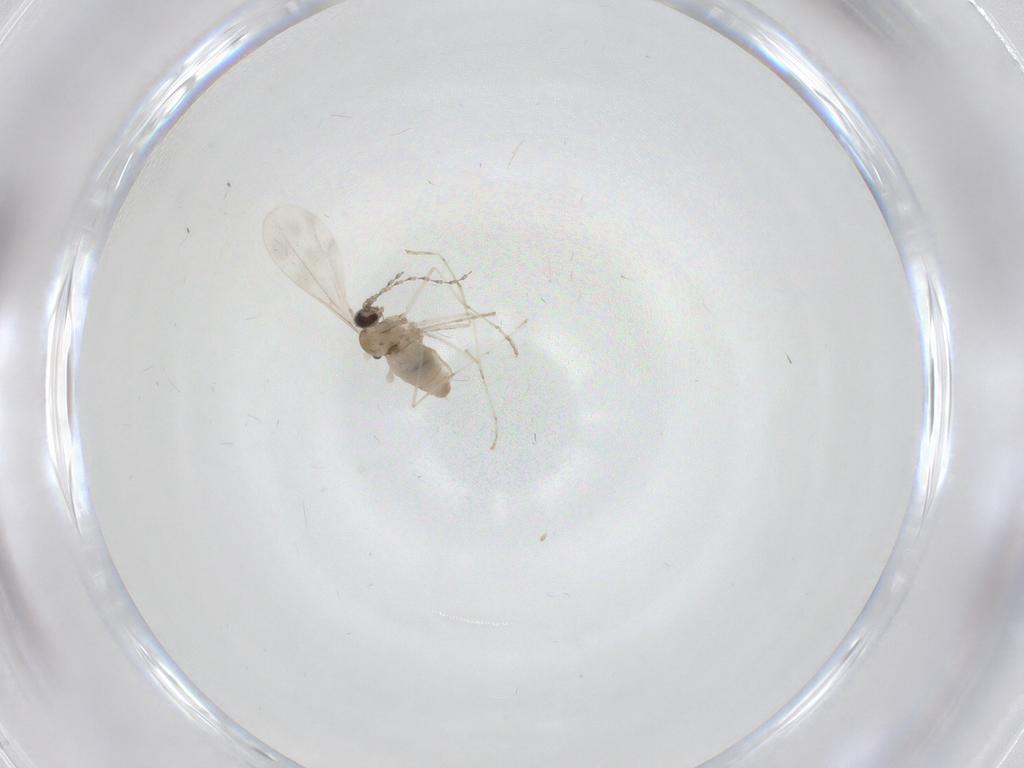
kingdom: Animalia
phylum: Arthropoda
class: Insecta
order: Diptera
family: Cecidomyiidae
